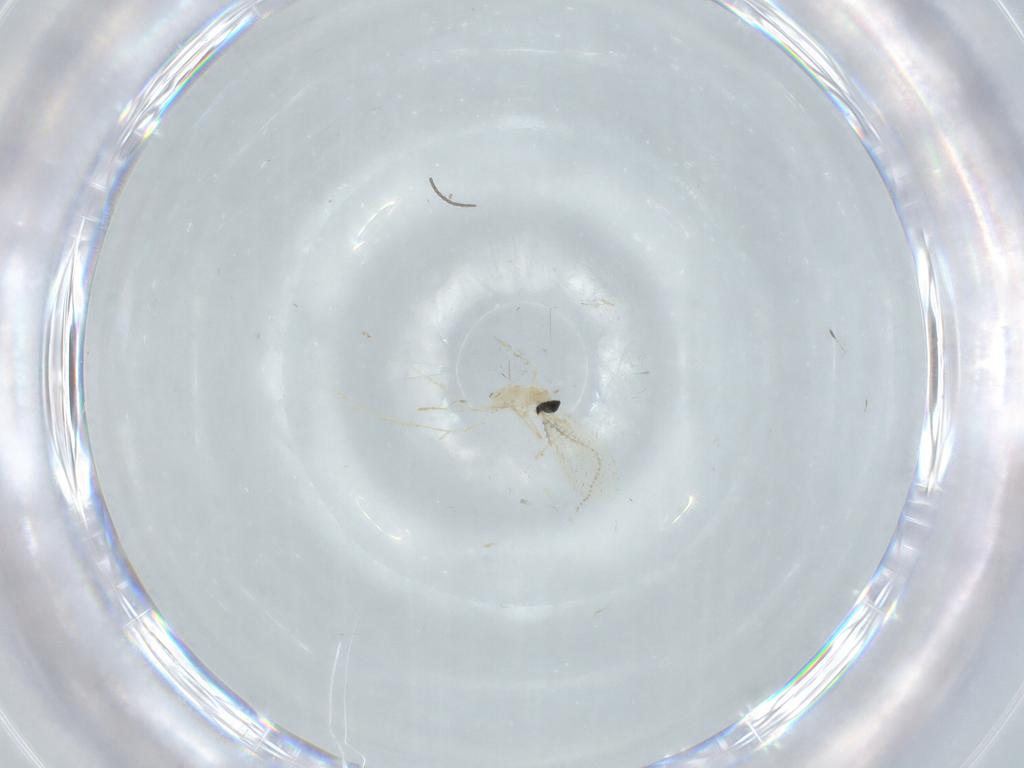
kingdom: Animalia
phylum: Arthropoda
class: Insecta
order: Diptera
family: Cecidomyiidae
